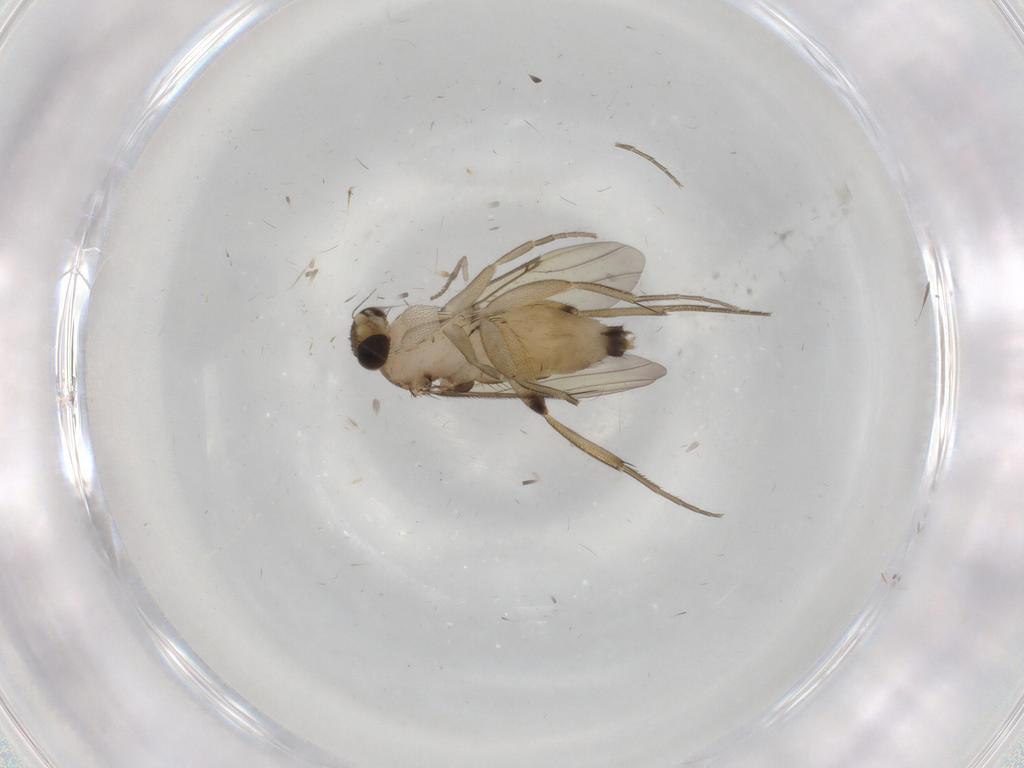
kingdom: Animalia
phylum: Arthropoda
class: Insecta
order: Diptera
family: Phoridae
